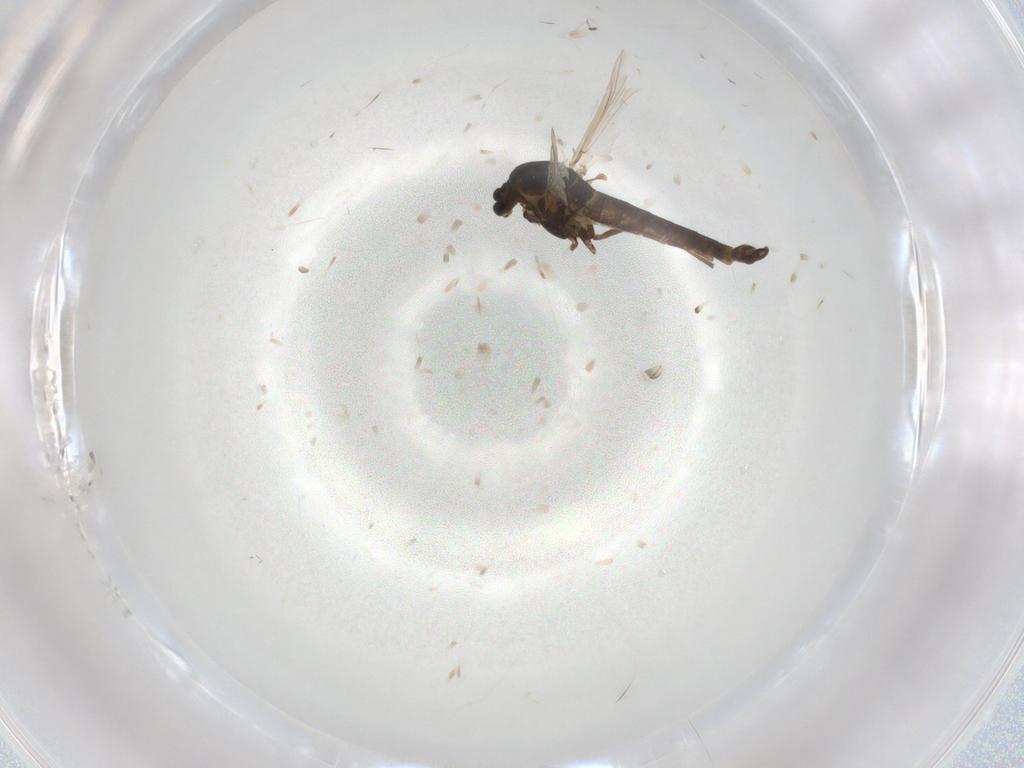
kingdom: Animalia
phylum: Arthropoda
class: Insecta
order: Diptera
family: Chironomidae
